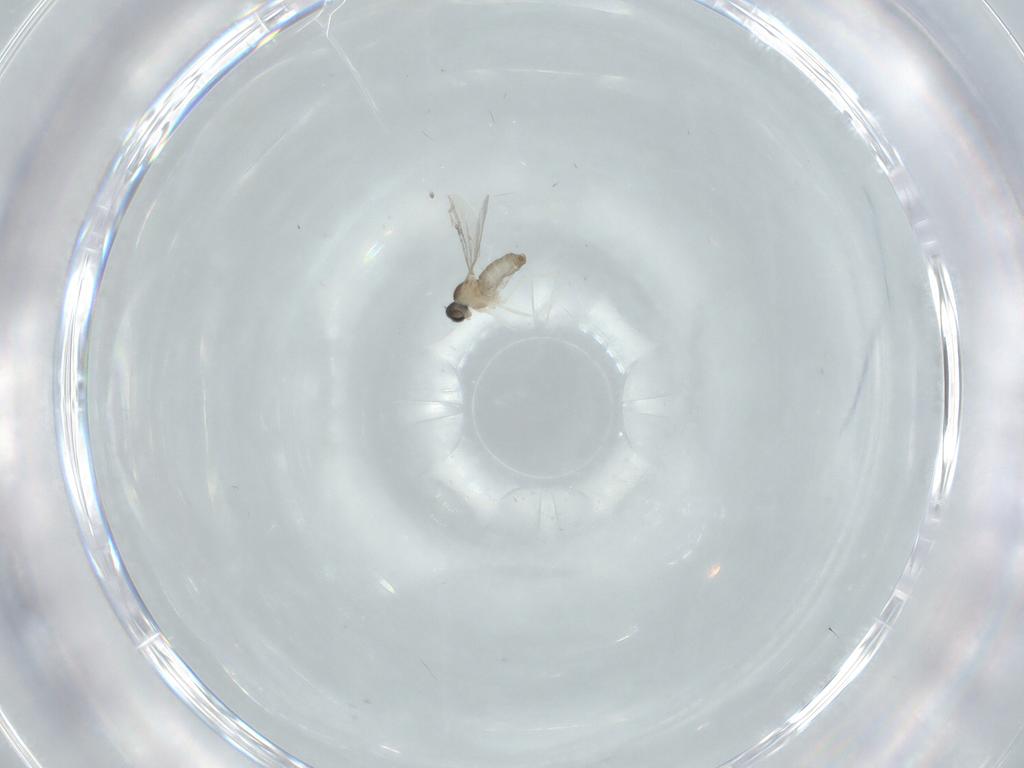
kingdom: Animalia
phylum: Arthropoda
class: Insecta
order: Diptera
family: Cecidomyiidae
